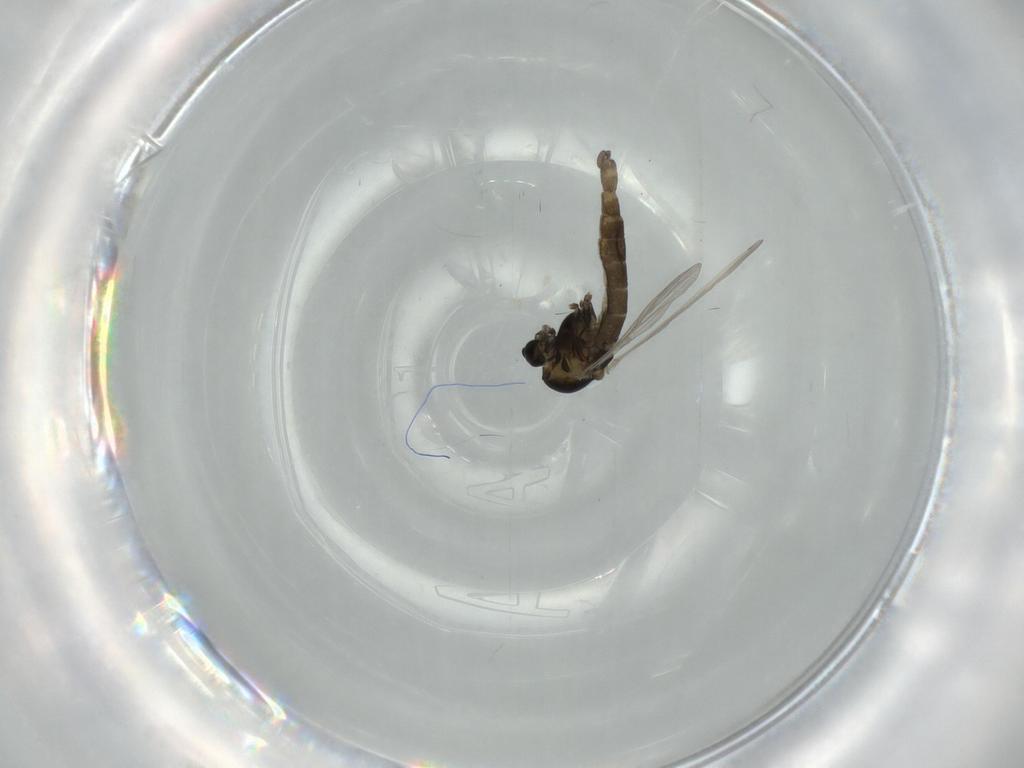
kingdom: Animalia
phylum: Arthropoda
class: Insecta
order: Diptera
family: Chironomidae
